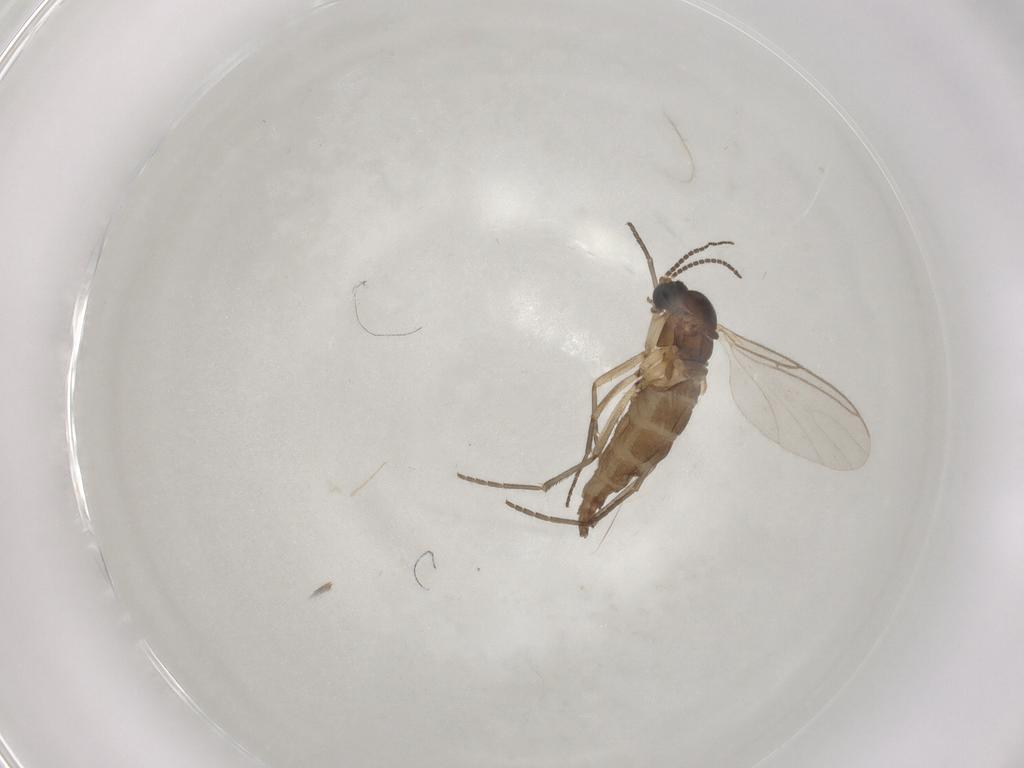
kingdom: Animalia
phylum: Arthropoda
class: Insecta
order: Diptera
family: Sciaridae
